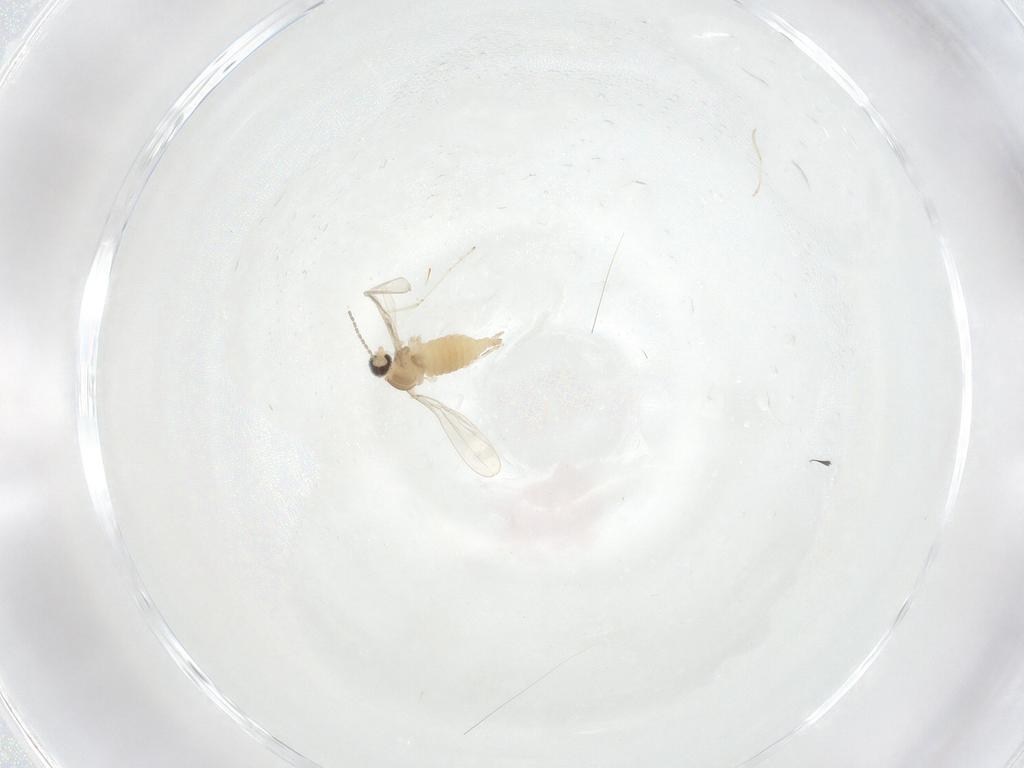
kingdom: Animalia
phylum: Arthropoda
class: Insecta
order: Diptera
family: Cecidomyiidae
